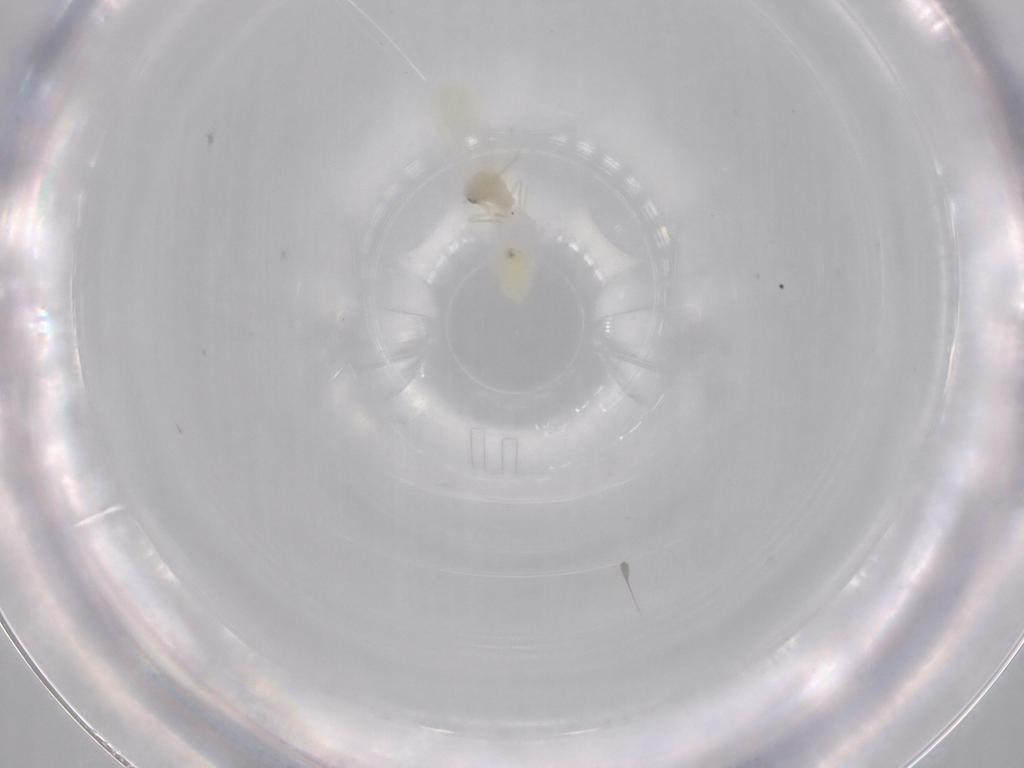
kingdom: Animalia
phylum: Arthropoda
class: Insecta
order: Hemiptera
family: Aleyrodidae
